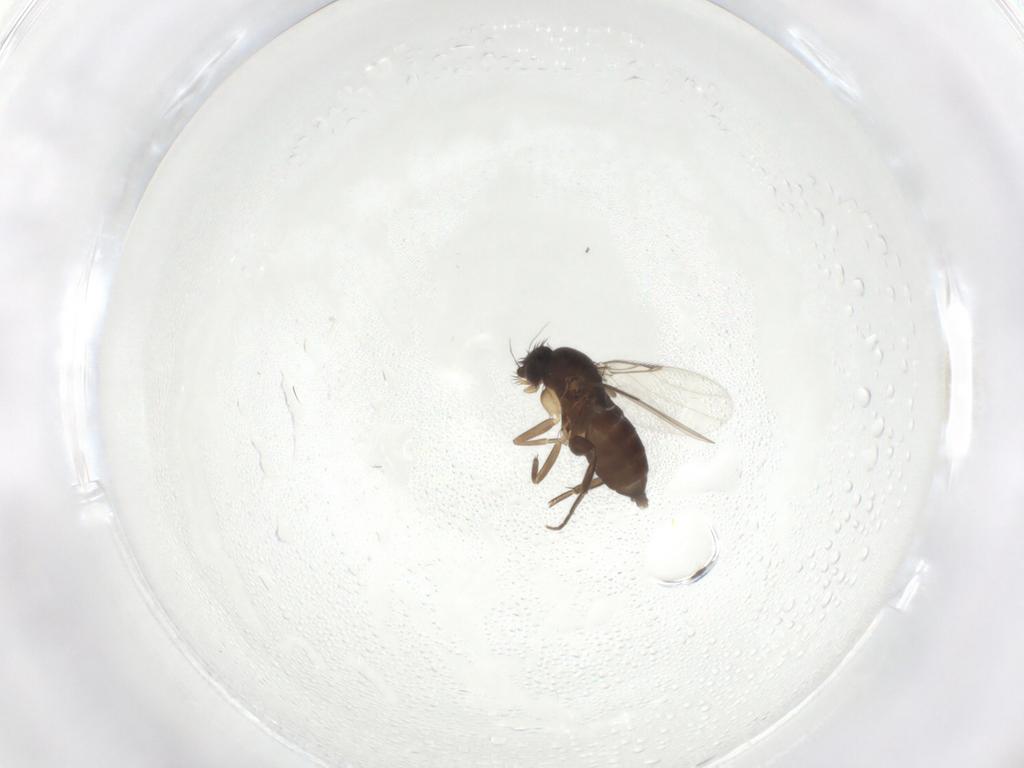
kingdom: Animalia
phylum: Arthropoda
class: Insecta
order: Diptera
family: Phoridae
